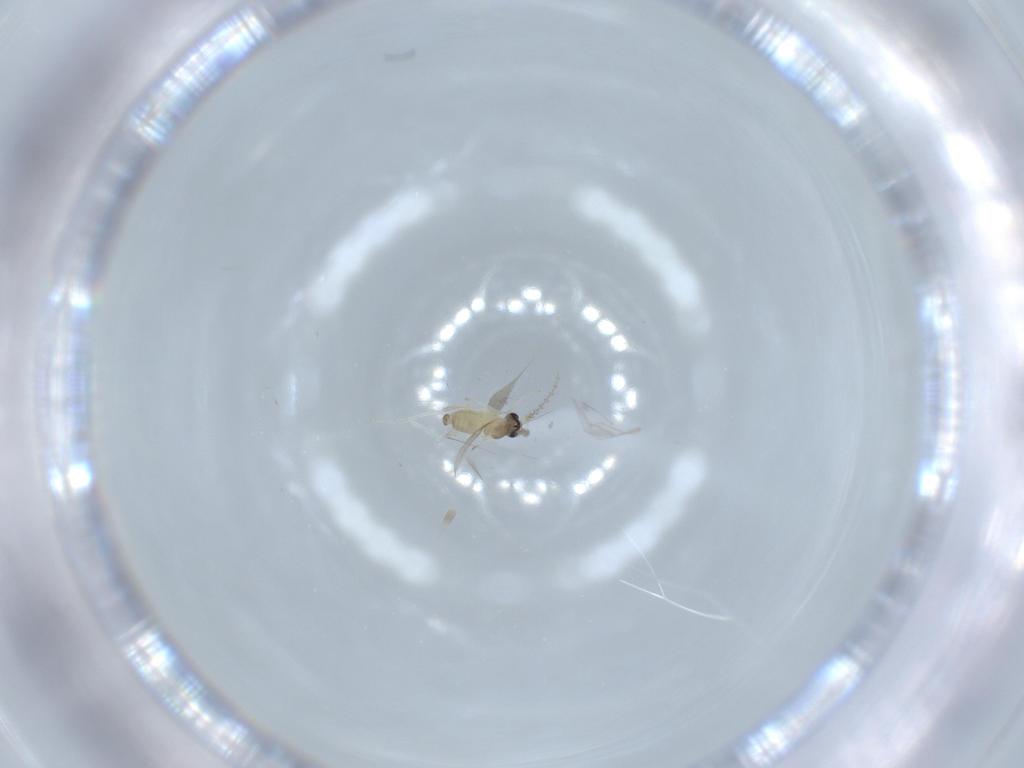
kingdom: Animalia
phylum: Arthropoda
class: Insecta
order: Diptera
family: Cecidomyiidae
